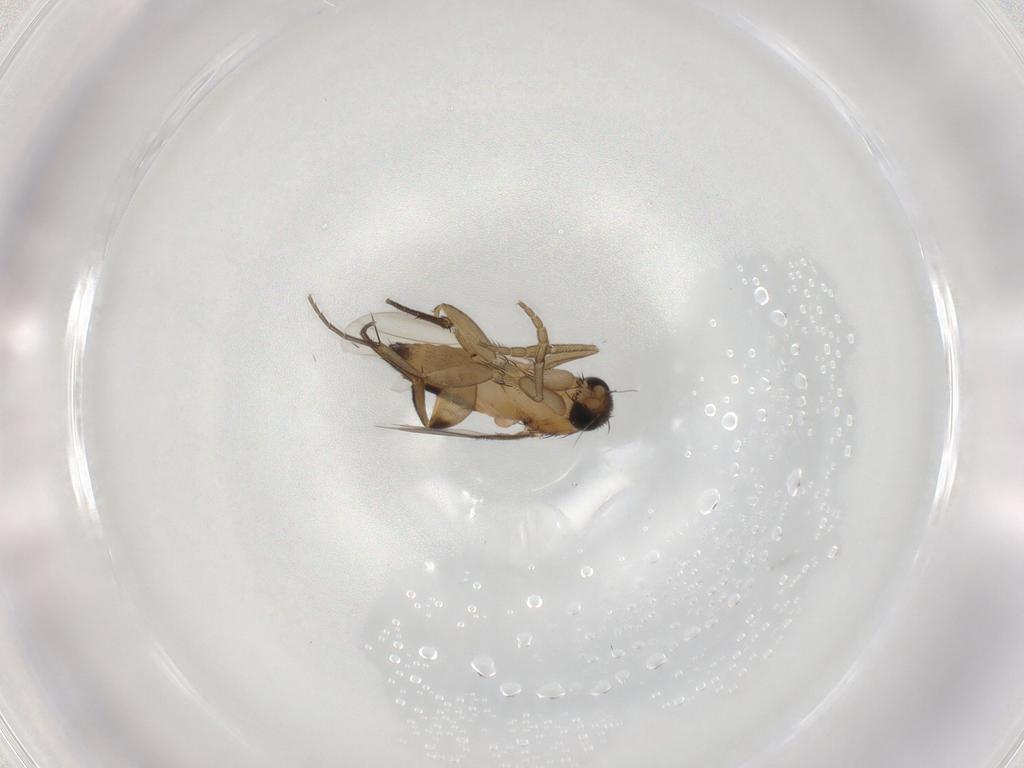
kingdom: Animalia
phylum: Arthropoda
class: Insecta
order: Diptera
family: Phoridae
